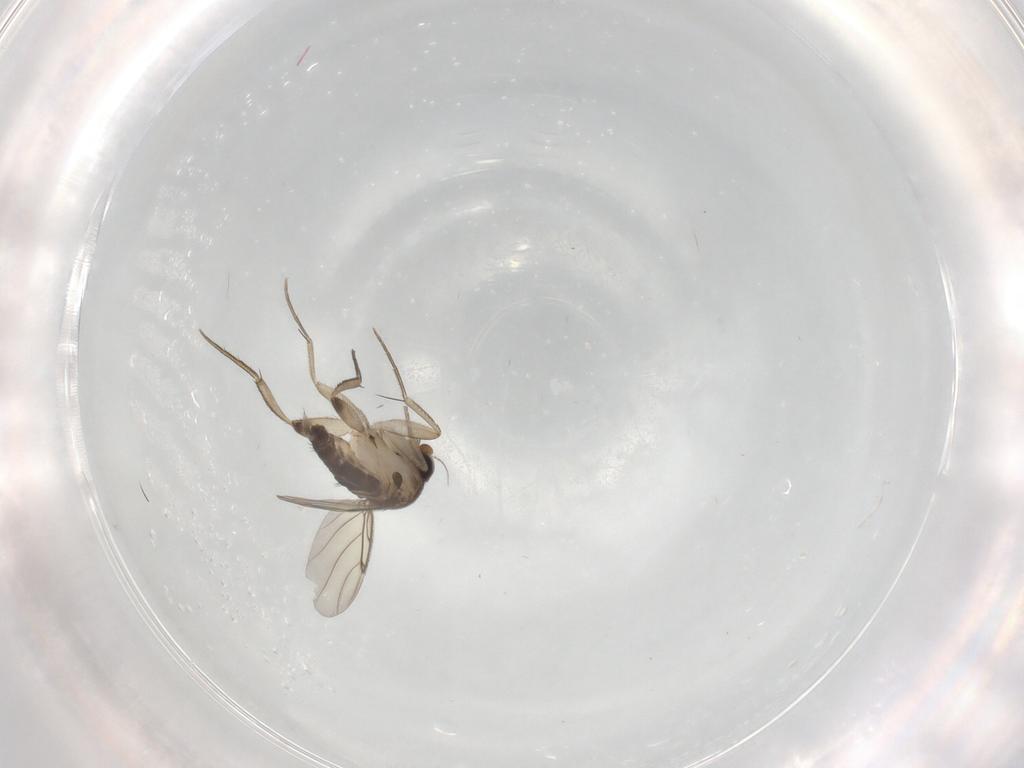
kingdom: Animalia
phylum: Arthropoda
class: Insecta
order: Diptera
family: Phoridae
